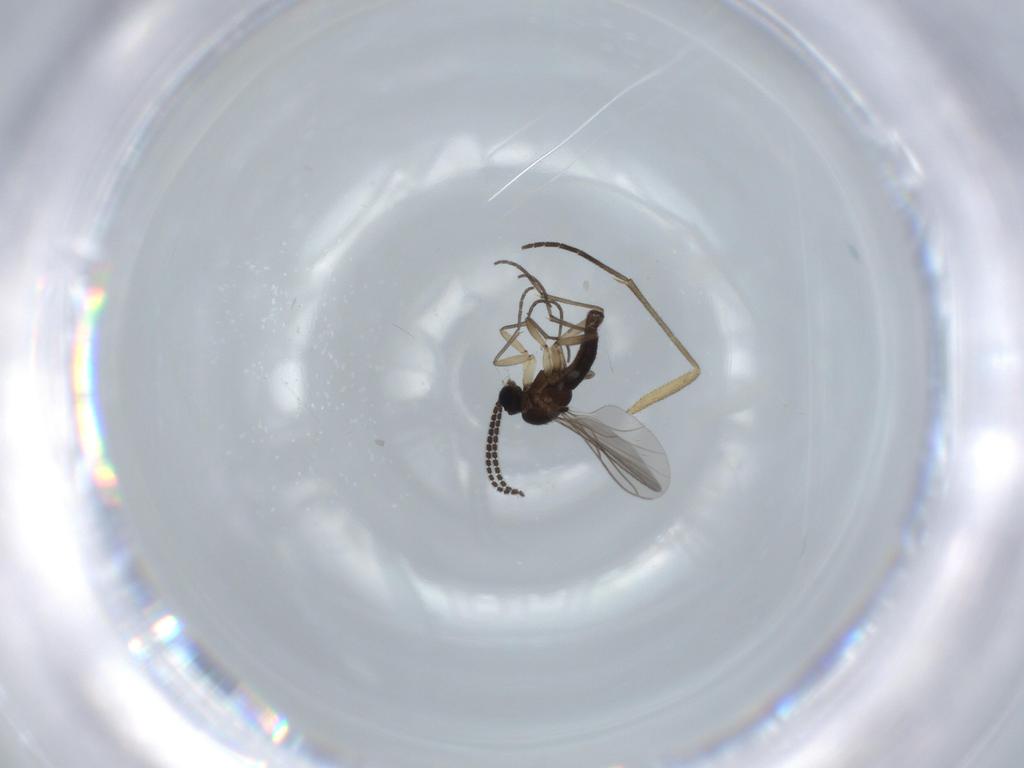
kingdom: Animalia
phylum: Arthropoda
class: Insecta
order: Diptera
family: Sciaridae
